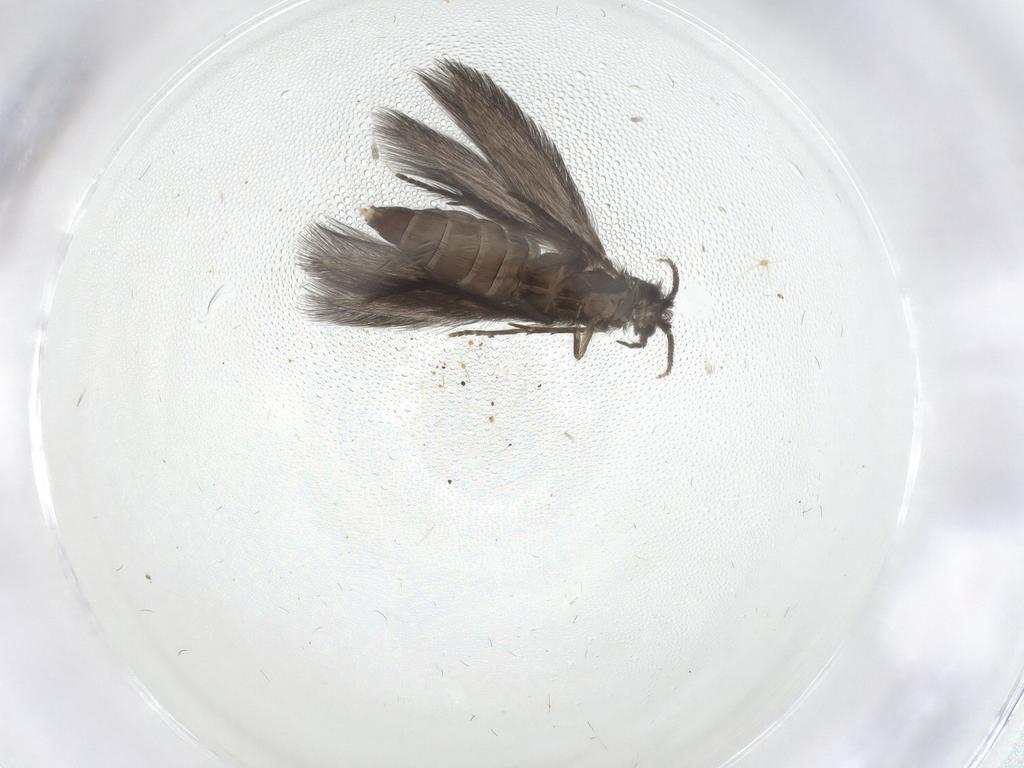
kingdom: Animalia
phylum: Arthropoda
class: Insecta
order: Trichoptera
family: Hydroptilidae
